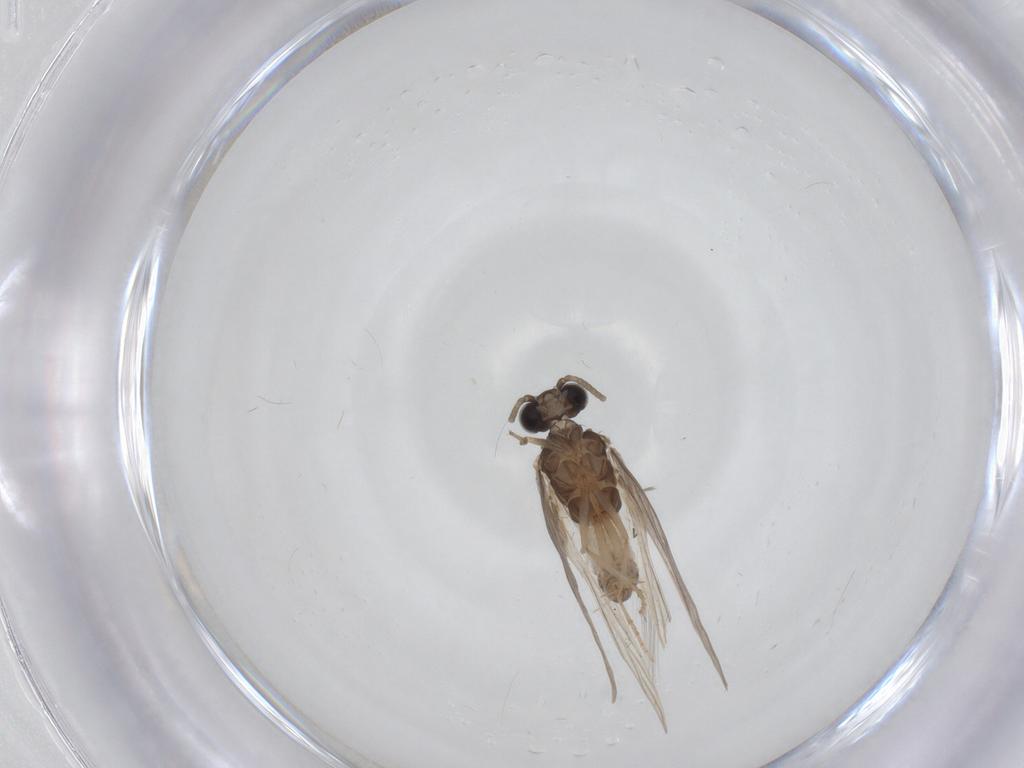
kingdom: Animalia
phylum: Arthropoda
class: Insecta
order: Trichoptera
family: Hydroptilidae
